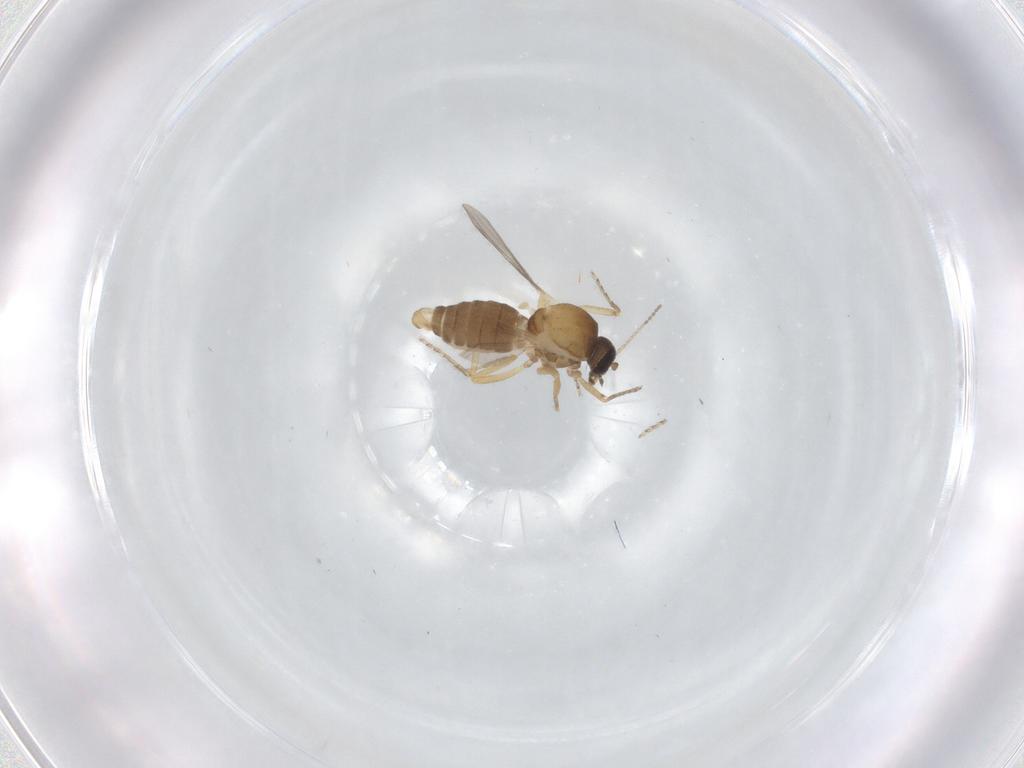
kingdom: Animalia
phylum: Arthropoda
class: Insecta
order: Diptera
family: Ceratopogonidae
